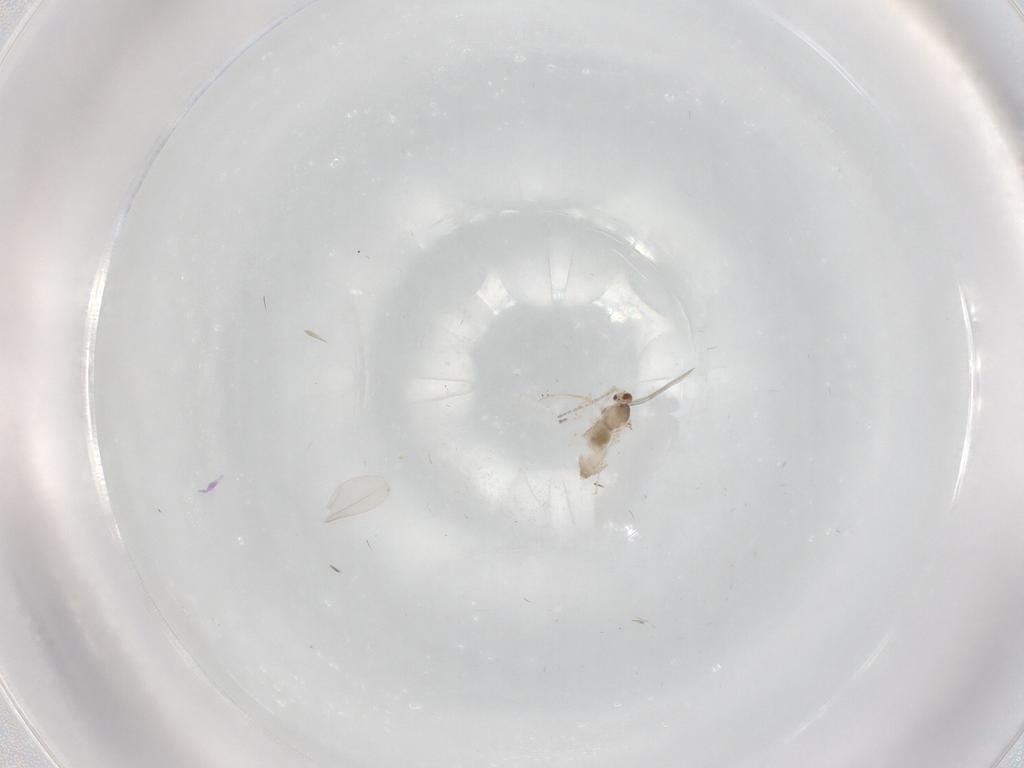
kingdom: Animalia
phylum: Arthropoda
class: Insecta
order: Diptera
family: Cecidomyiidae
